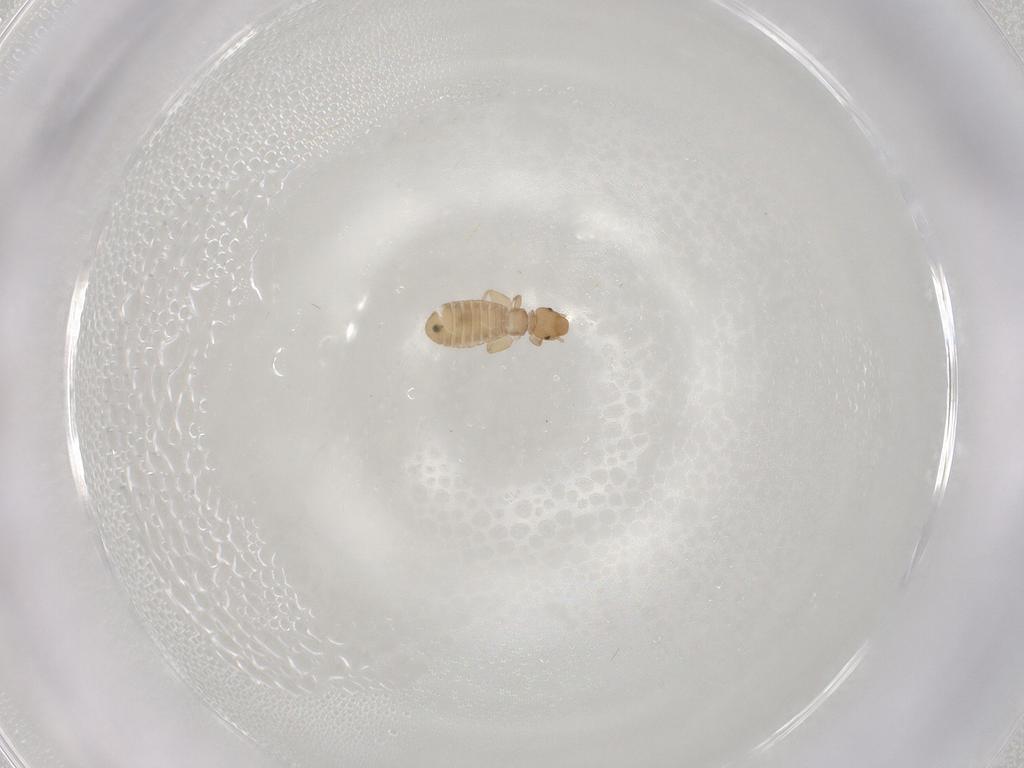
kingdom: Animalia
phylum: Arthropoda
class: Insecta
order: Psocodea
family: Liposcelididae
